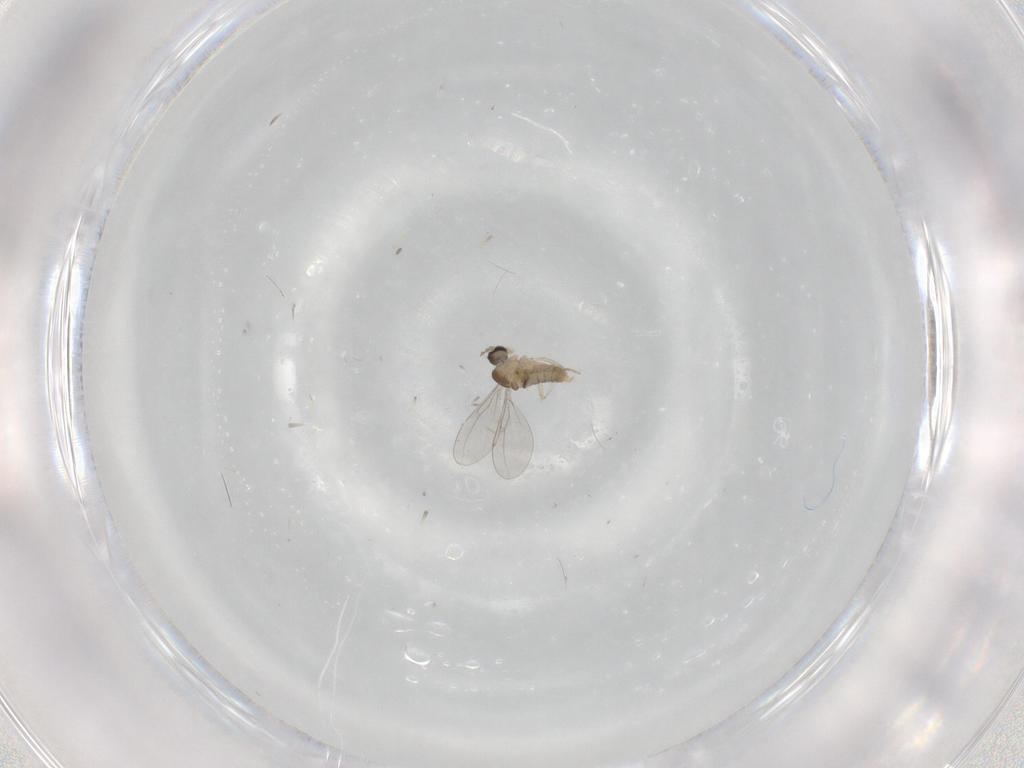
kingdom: Animalia
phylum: Arthropoda
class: Insecta
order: Diptera
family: Cecidomyiidae
